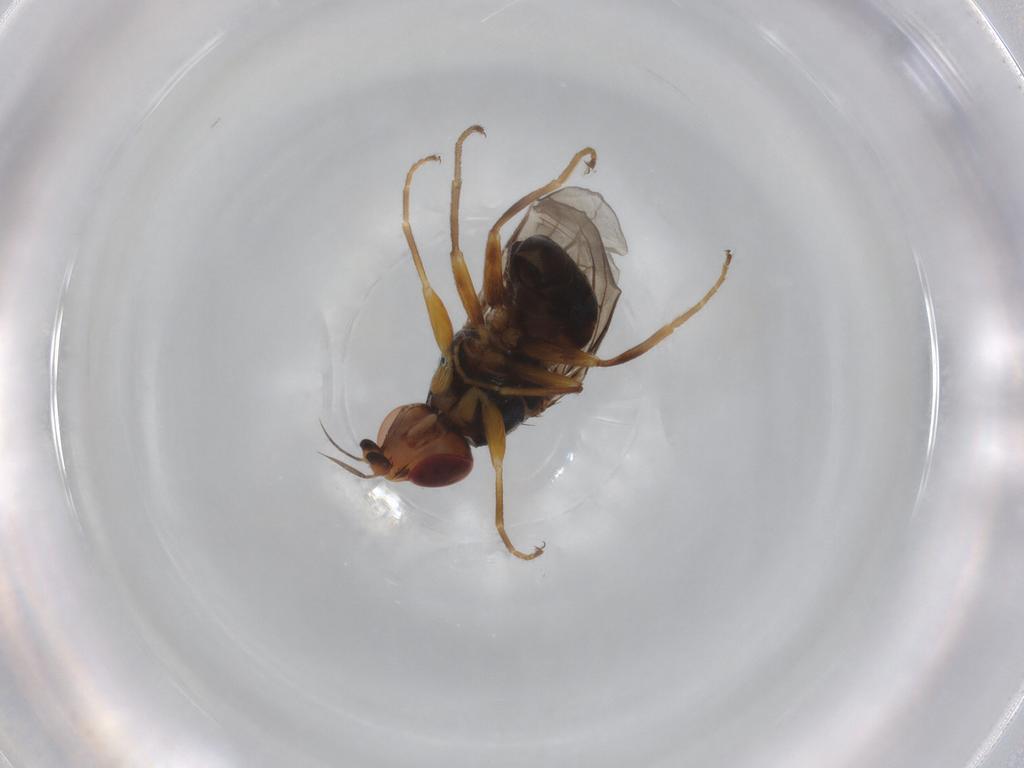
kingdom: Animalia
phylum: Arthropoda
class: Insecta
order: Diptera
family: Chloropidae
